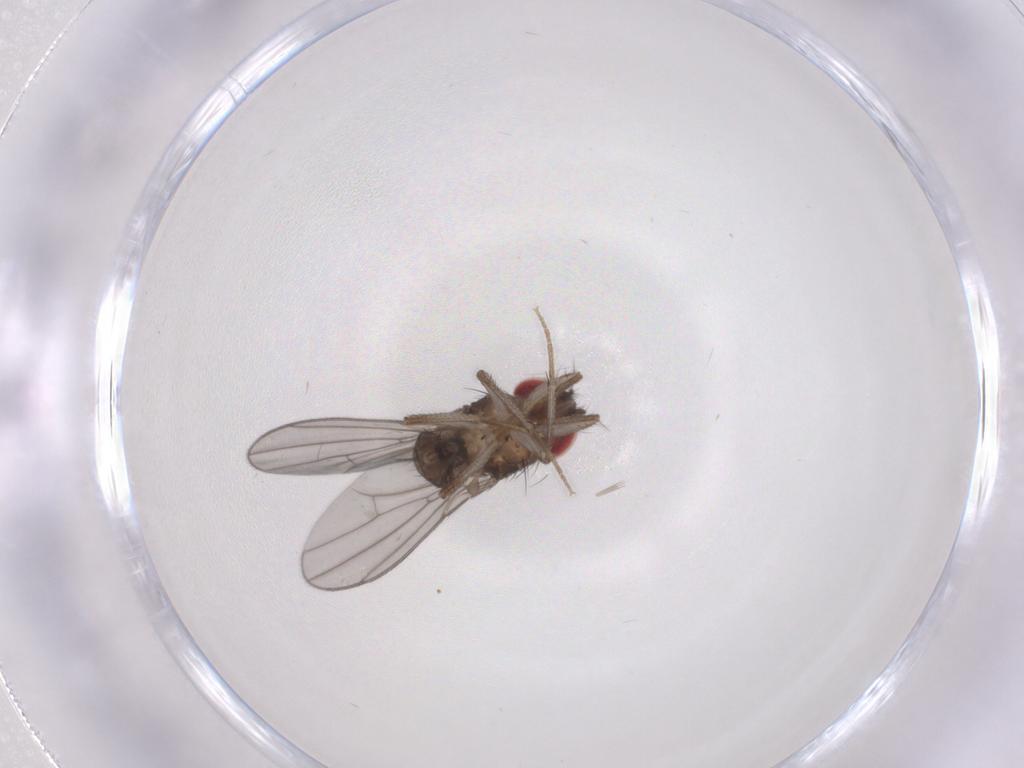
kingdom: Animalia
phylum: Arthropoda
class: Insecta
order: Diptera
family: Drosophilidae
